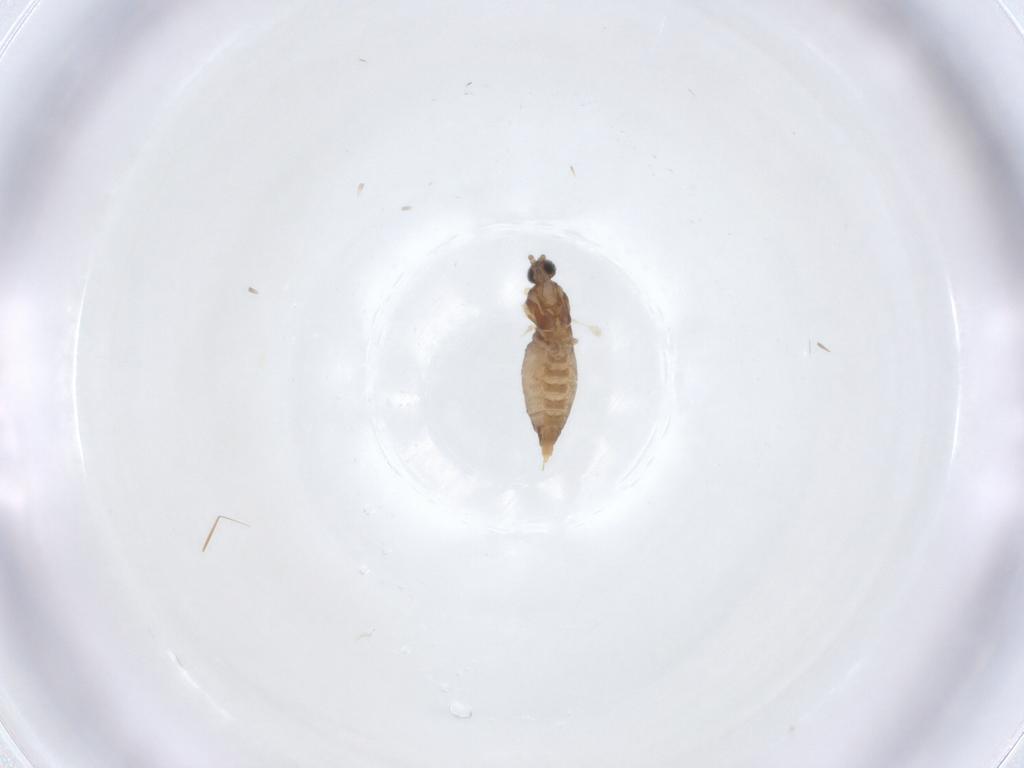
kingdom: Animalia
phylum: Arthropoda
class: Insecta
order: Diptera
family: Cecidomyiidae
